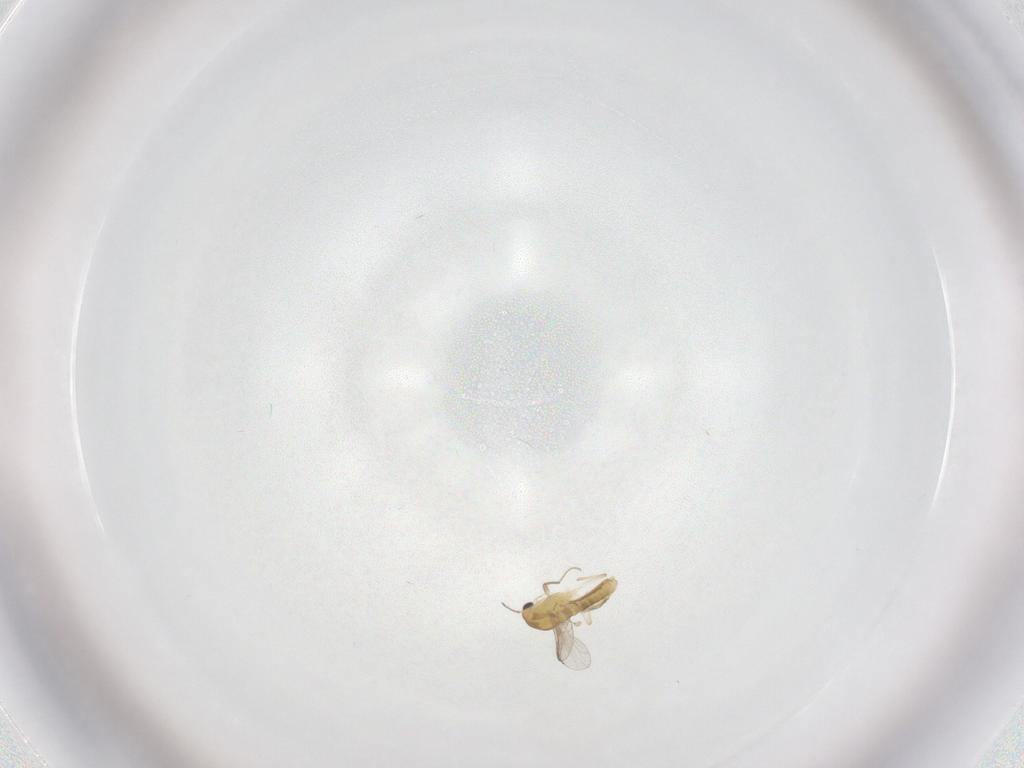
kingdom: Animalia
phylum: Arthropoda
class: Insecta
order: Diptera
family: Dolichopodidae
